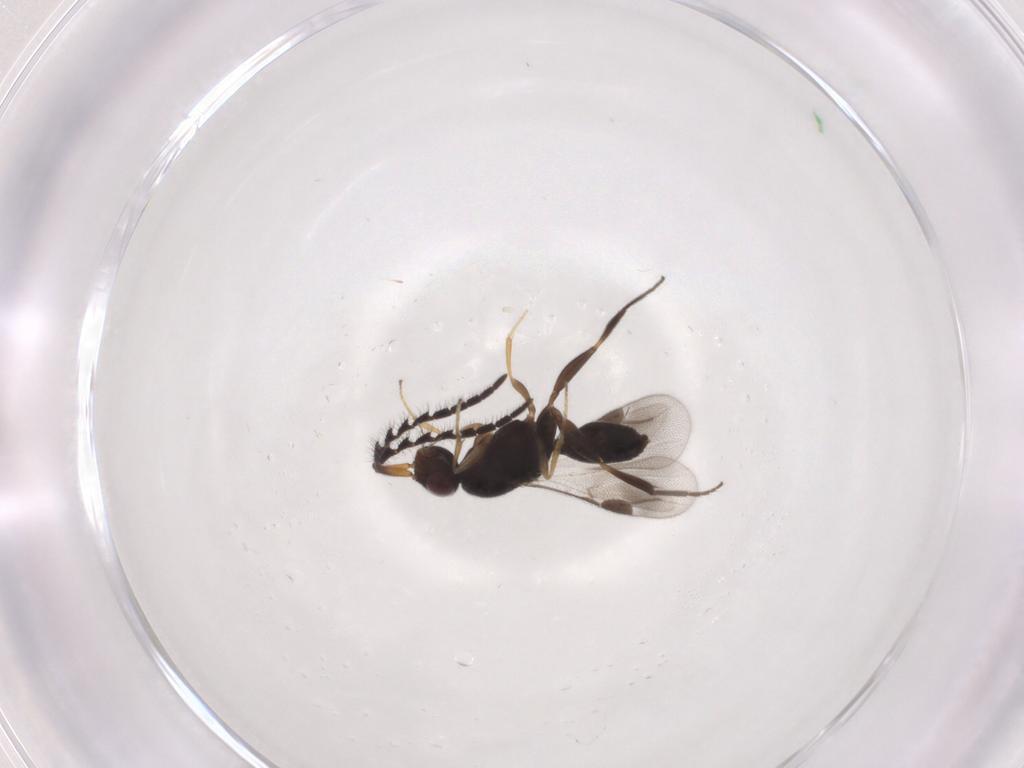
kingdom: Animalia
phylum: Arthropoda
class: Insecta
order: Hymenoptera
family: Megaspilidae
